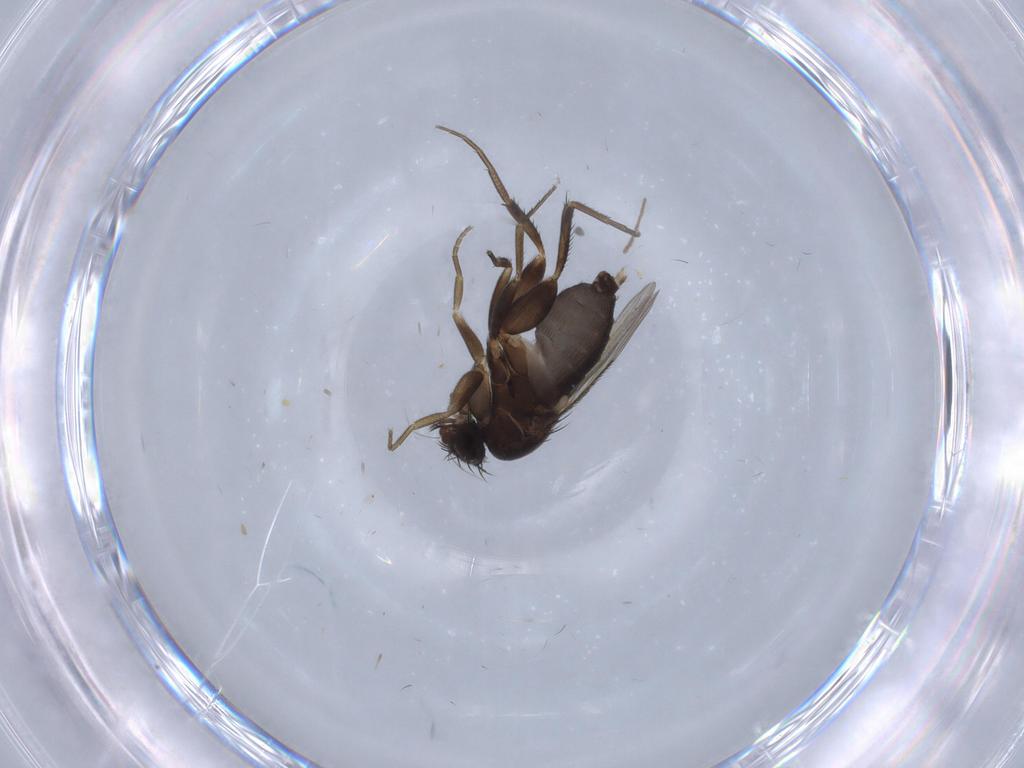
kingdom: Animalia
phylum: Arthropoda
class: Insecta
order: Diptera
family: Phoridae
